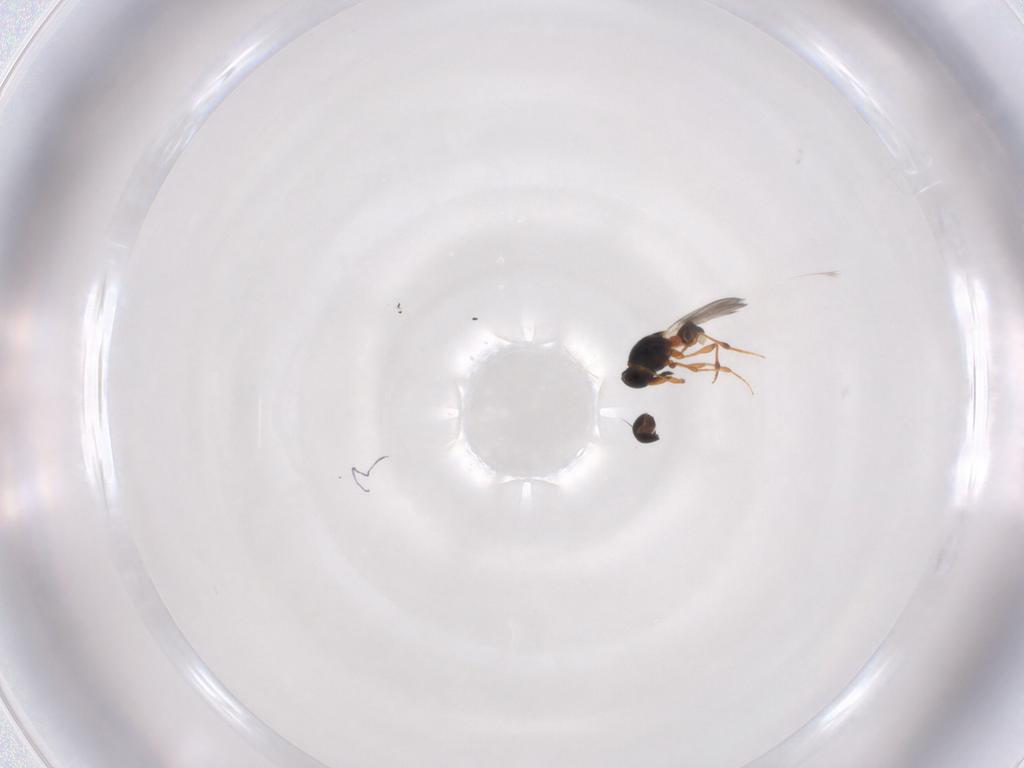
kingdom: Animalia
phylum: Arthropoda
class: Insecta
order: Hymenoptera
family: Platygastridae
